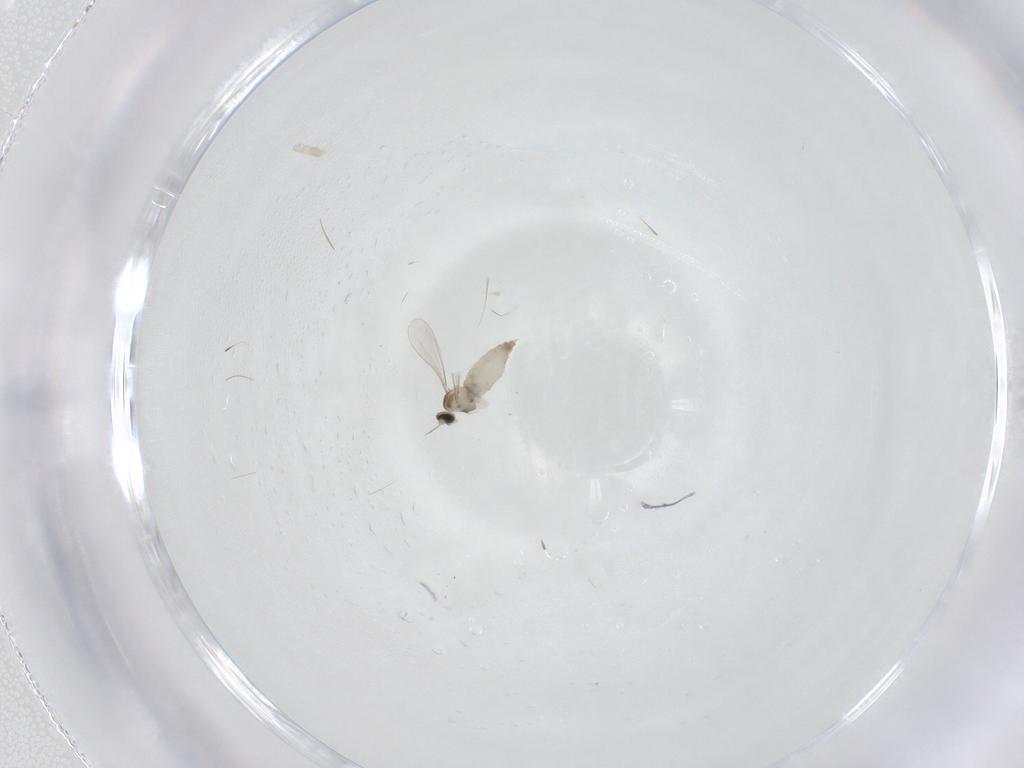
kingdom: Animalia
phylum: Arthropoda
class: Insecta
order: Diptera
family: Cecidomyiidae
